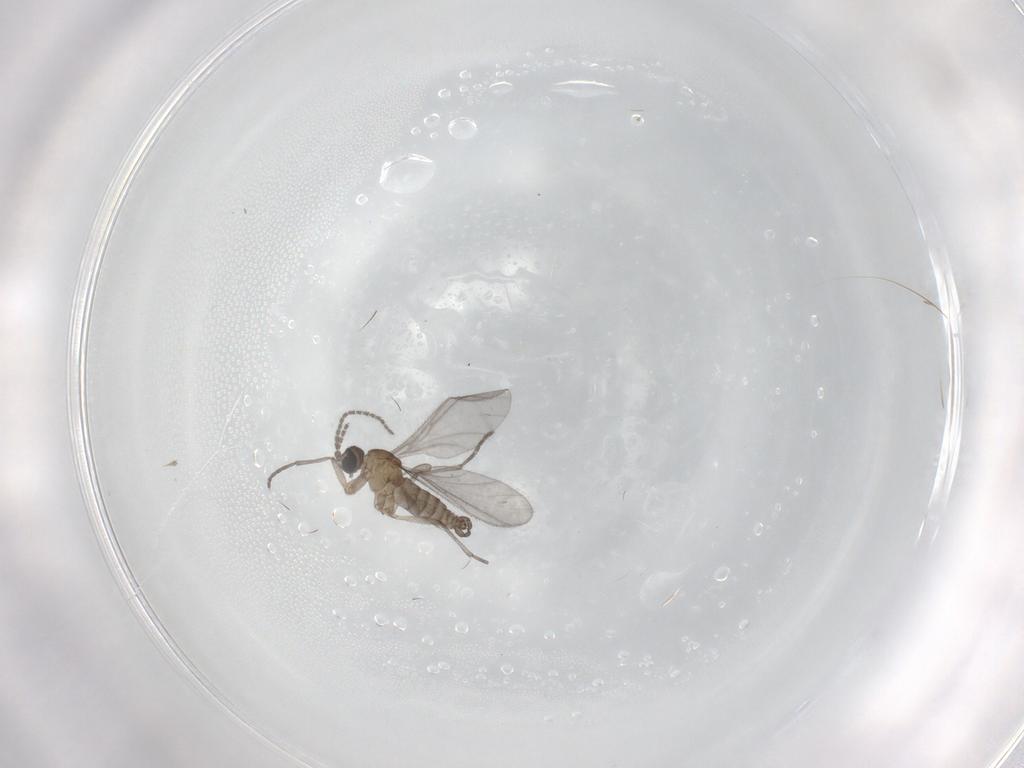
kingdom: Animalia
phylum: Arthropoda
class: Insecta
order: Diptera
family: Sciaridae
